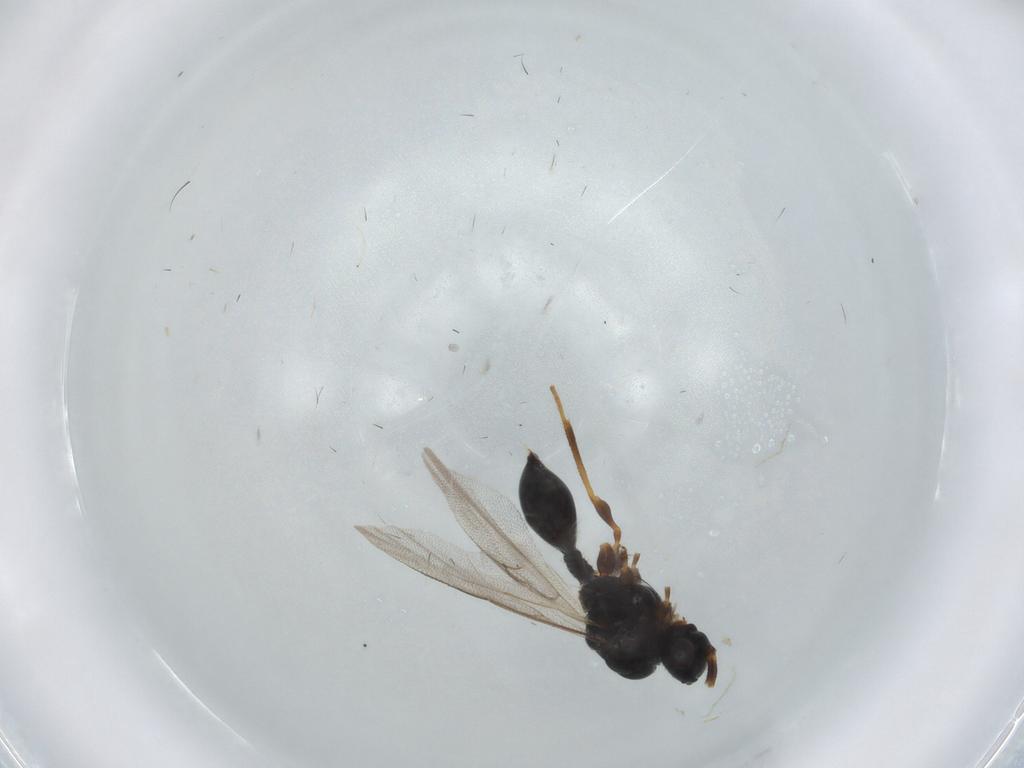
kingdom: Animalia
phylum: Arthropoda
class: Insecta
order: Hymenoptera
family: Diapriidae
